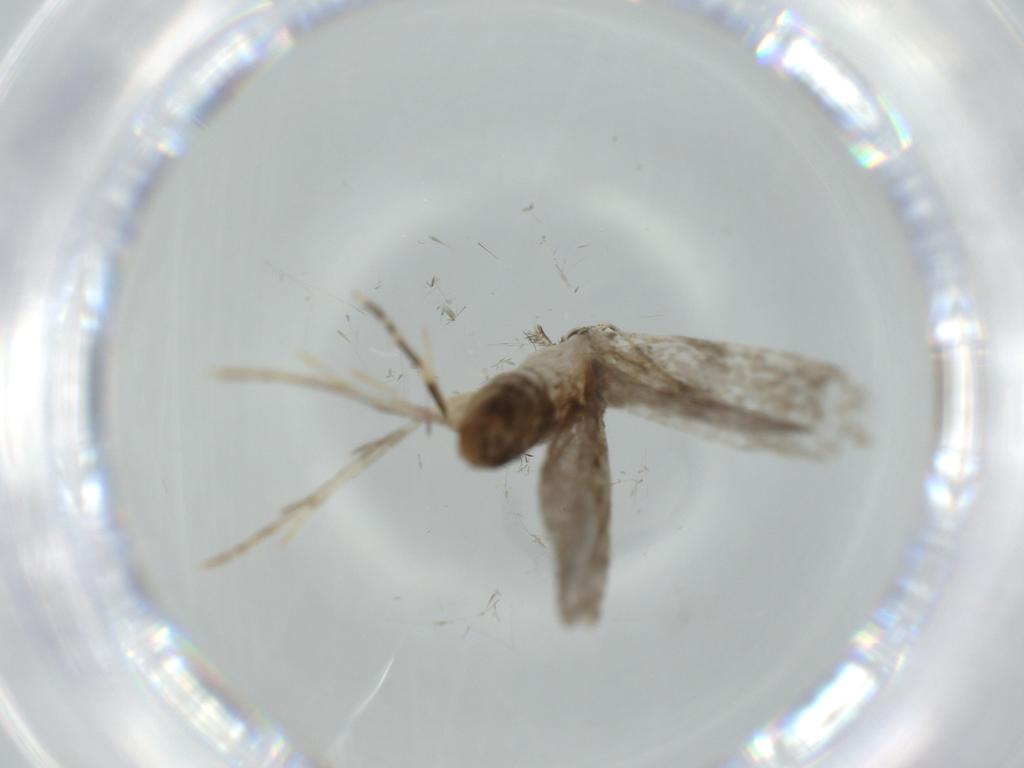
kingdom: Animalia
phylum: Arthropoda
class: Insecta
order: Lepidoptera
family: Tineidae
